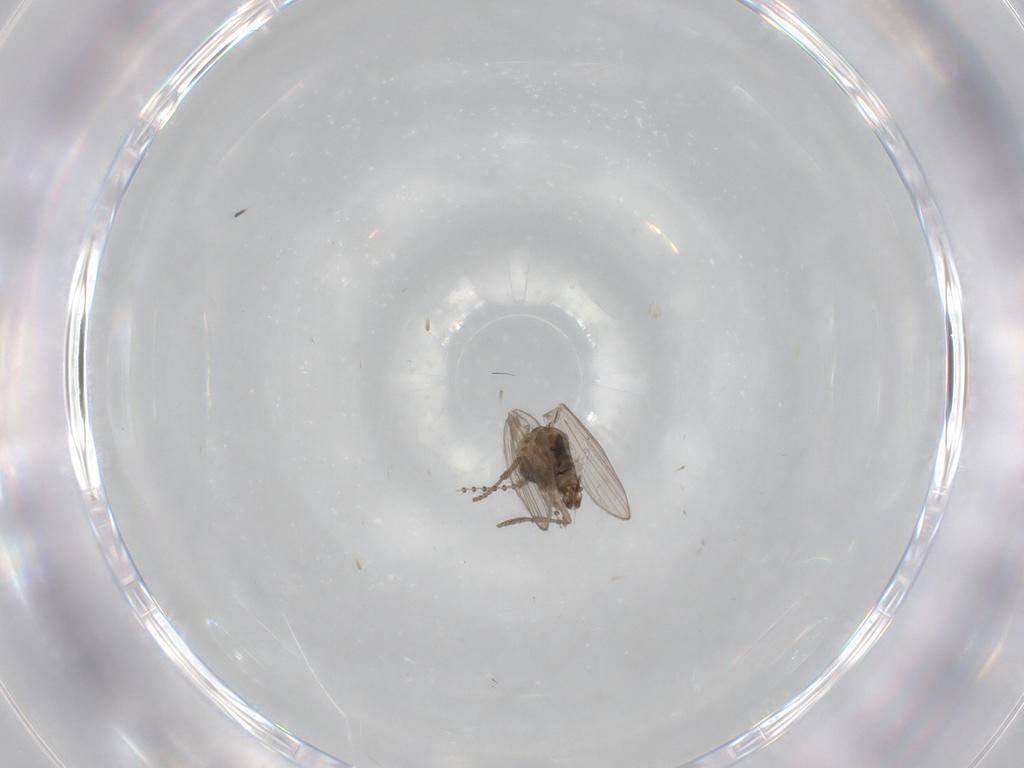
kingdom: Animalia
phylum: Arthropoda
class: Insecta
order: Diptera
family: Psychodidae
